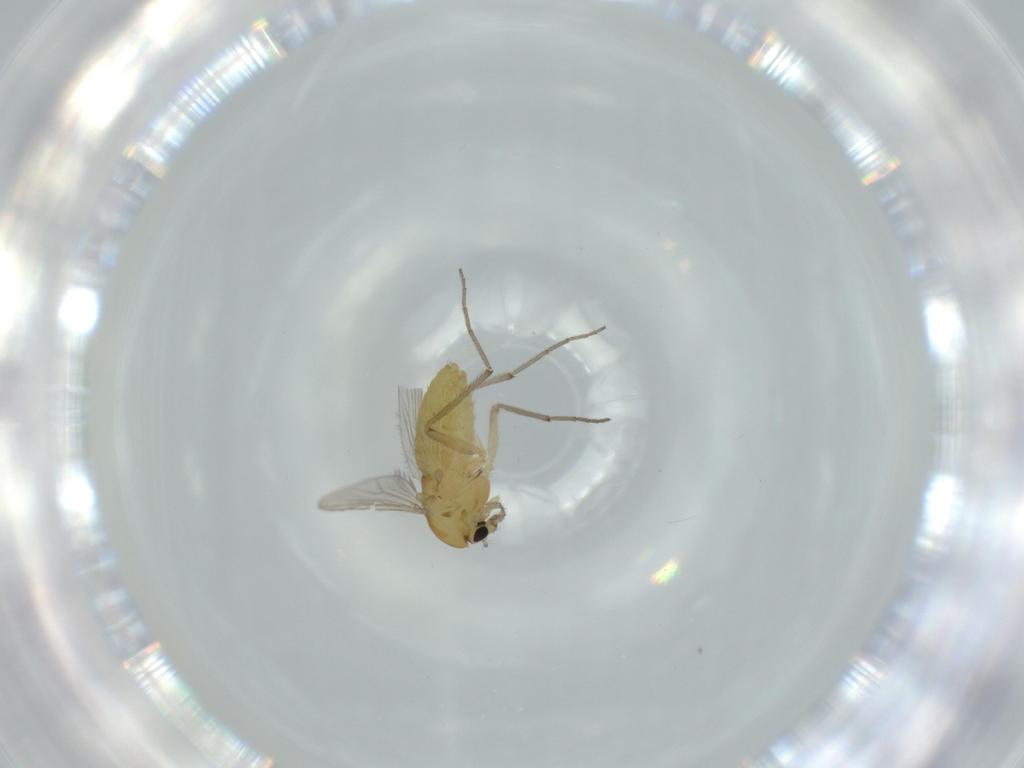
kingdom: Animalia
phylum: Arthropoda
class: Insecta
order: Diptera
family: Chironomidae
